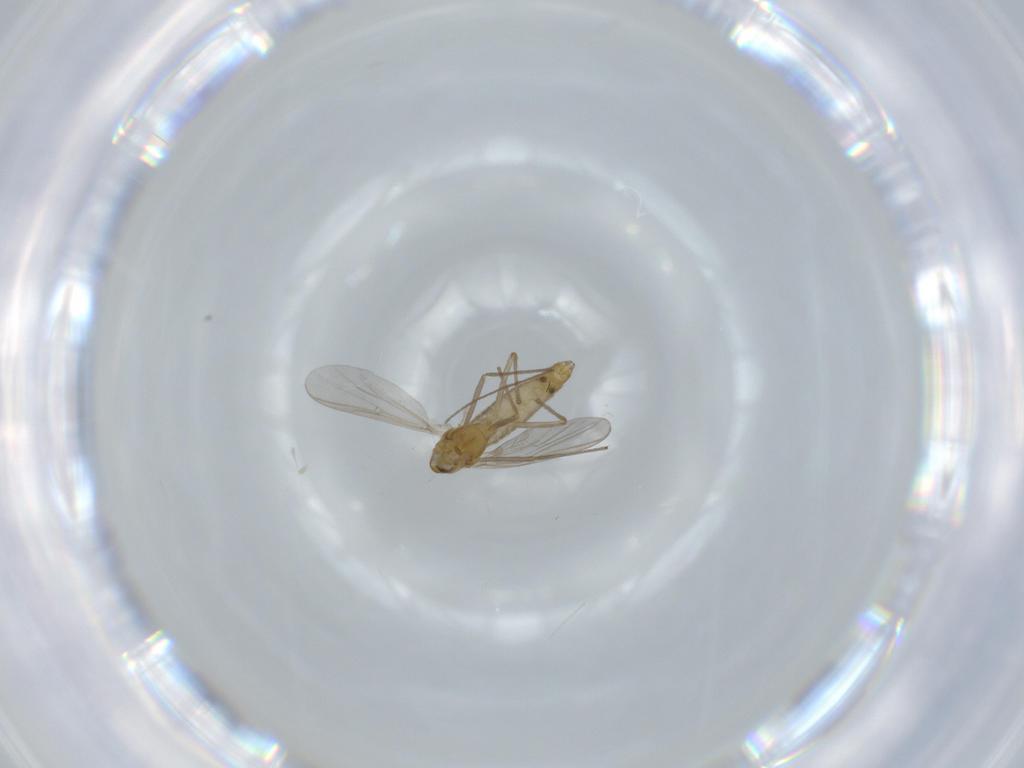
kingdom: Animalia
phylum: Arthropoda
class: Insecta
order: Diptera
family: Chironomidae
